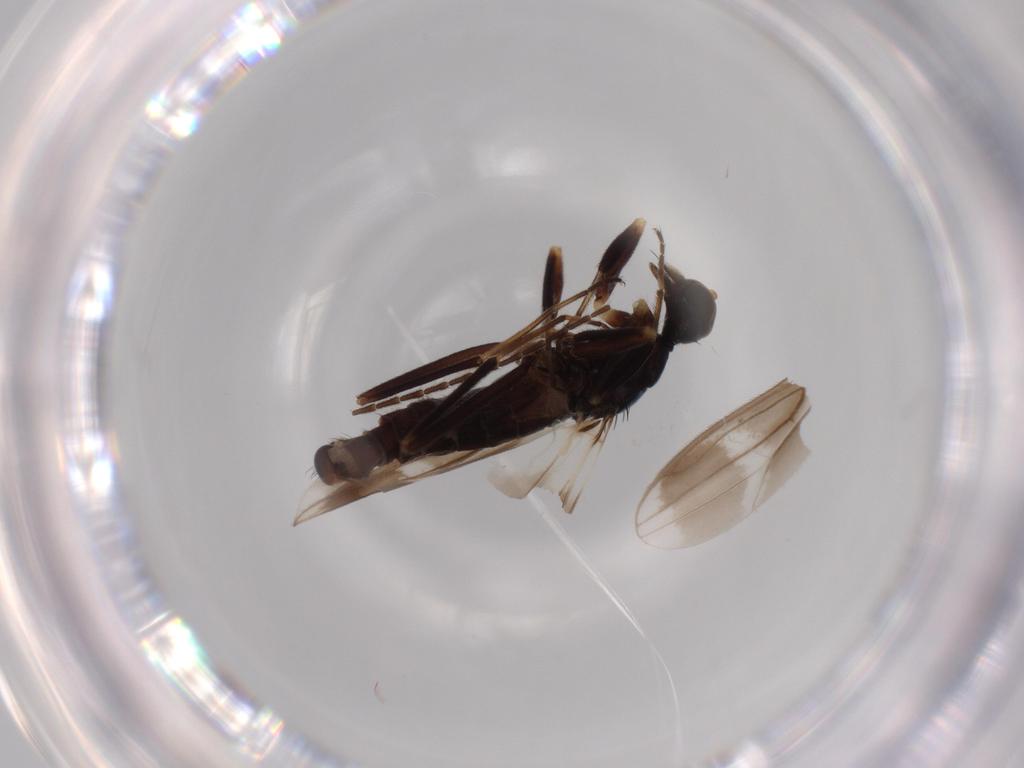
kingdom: Animalia
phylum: Arthropoda
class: Insecta
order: Diptera
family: Hybotidae
